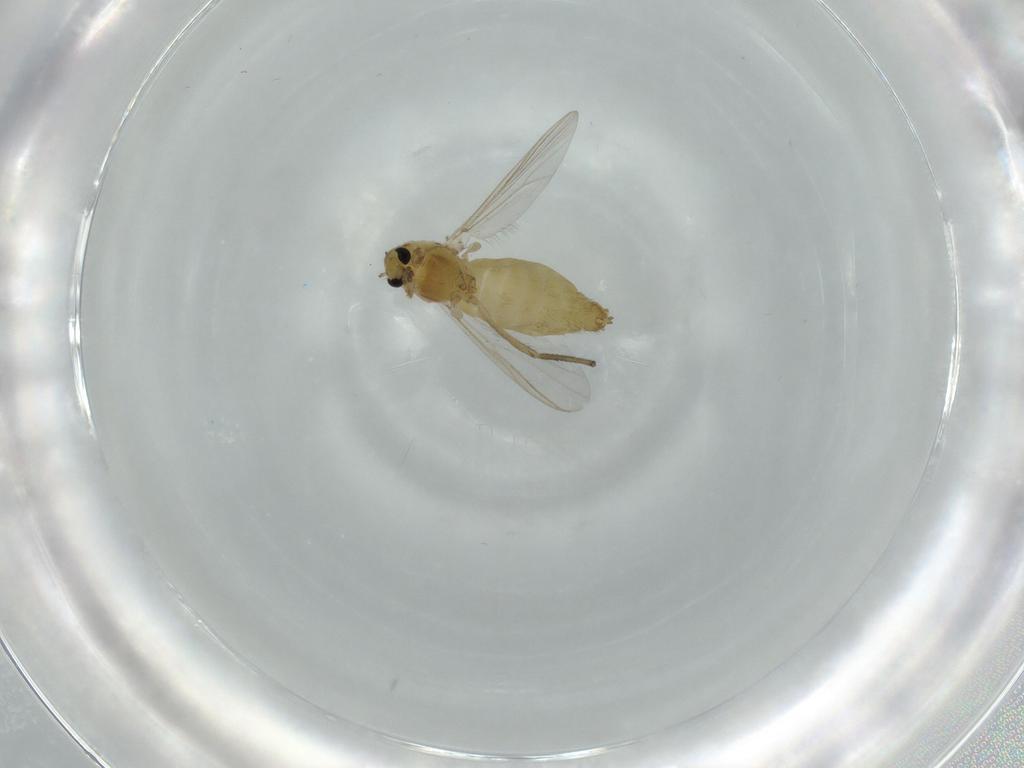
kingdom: Animalia
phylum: Arthropoda
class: Insecta
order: Diptera
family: Chironomidae
